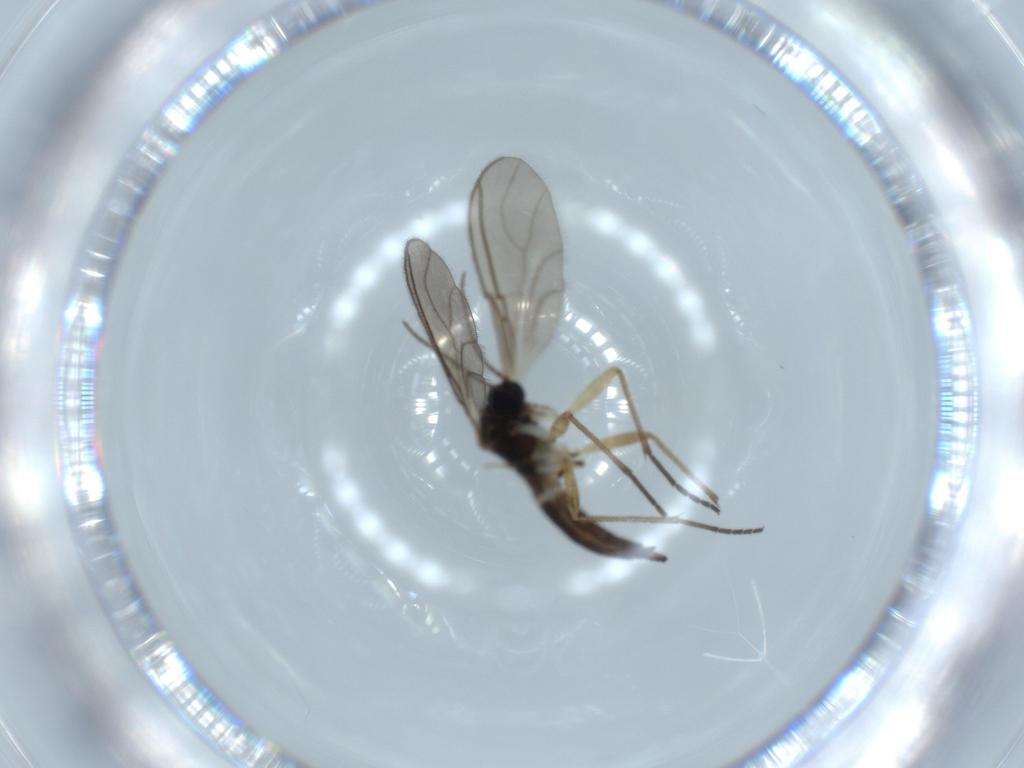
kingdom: Animalia
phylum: Arthropoda
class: Insecta
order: Diptera
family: Sciaridae
